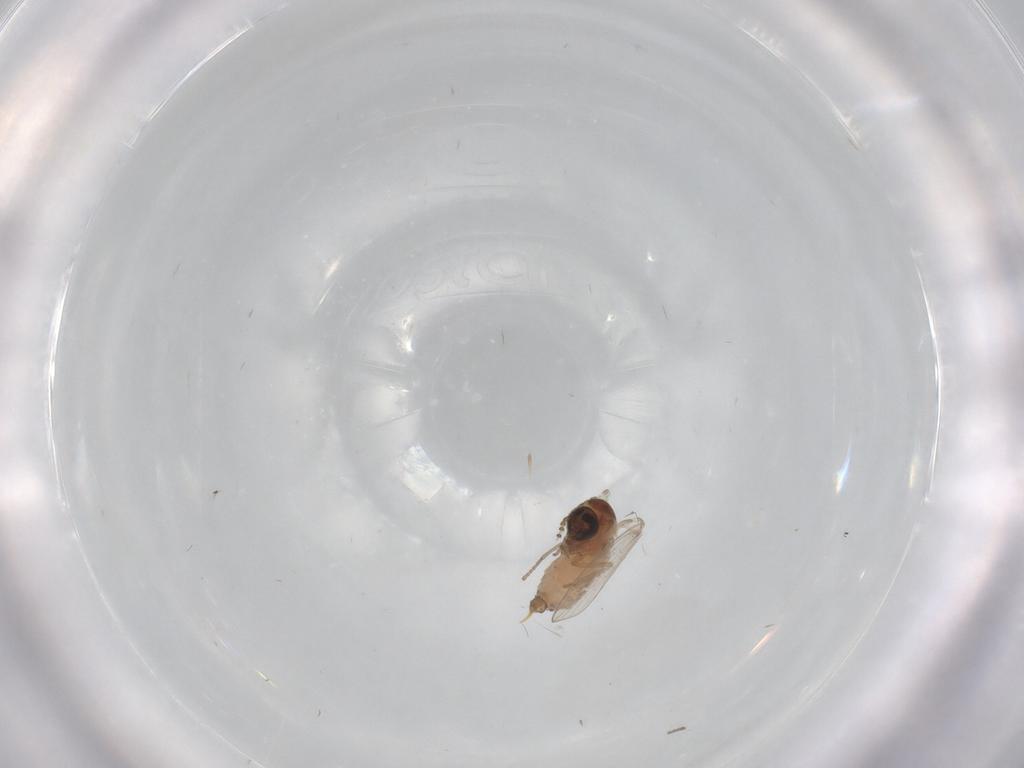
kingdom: Animalia
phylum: Arthropoda
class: Insecta
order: Diptera
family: Psychodidae
